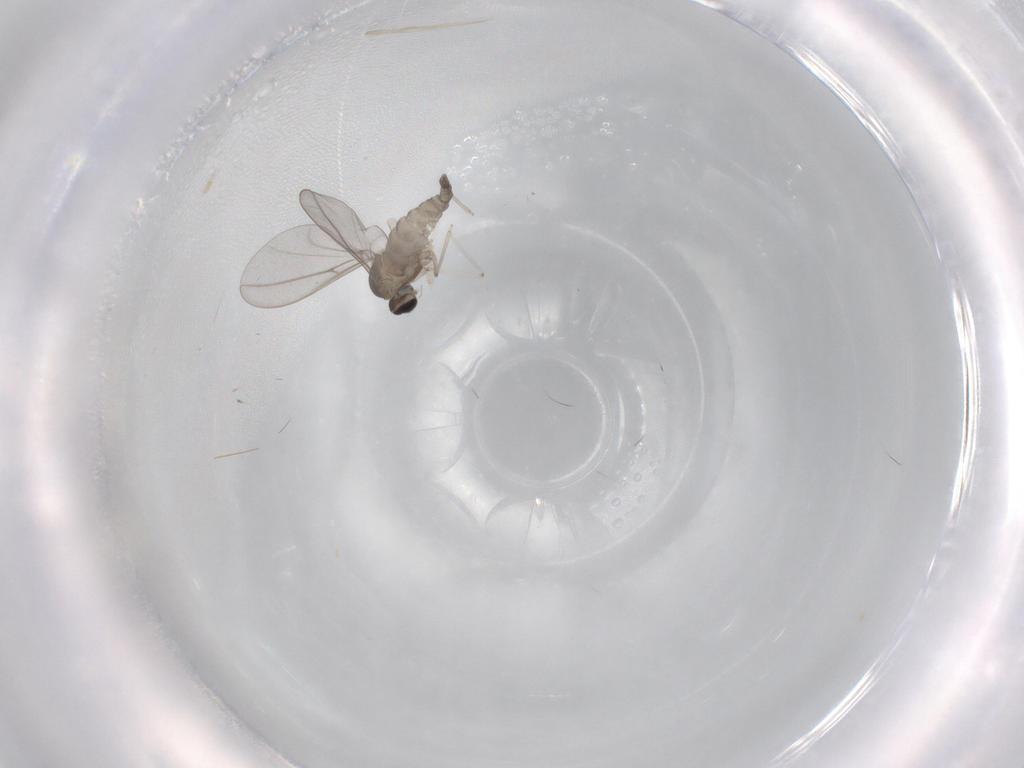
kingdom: Animalia
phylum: Arthropoda
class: Insecta
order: Diptera
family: Cecidomyiidae
